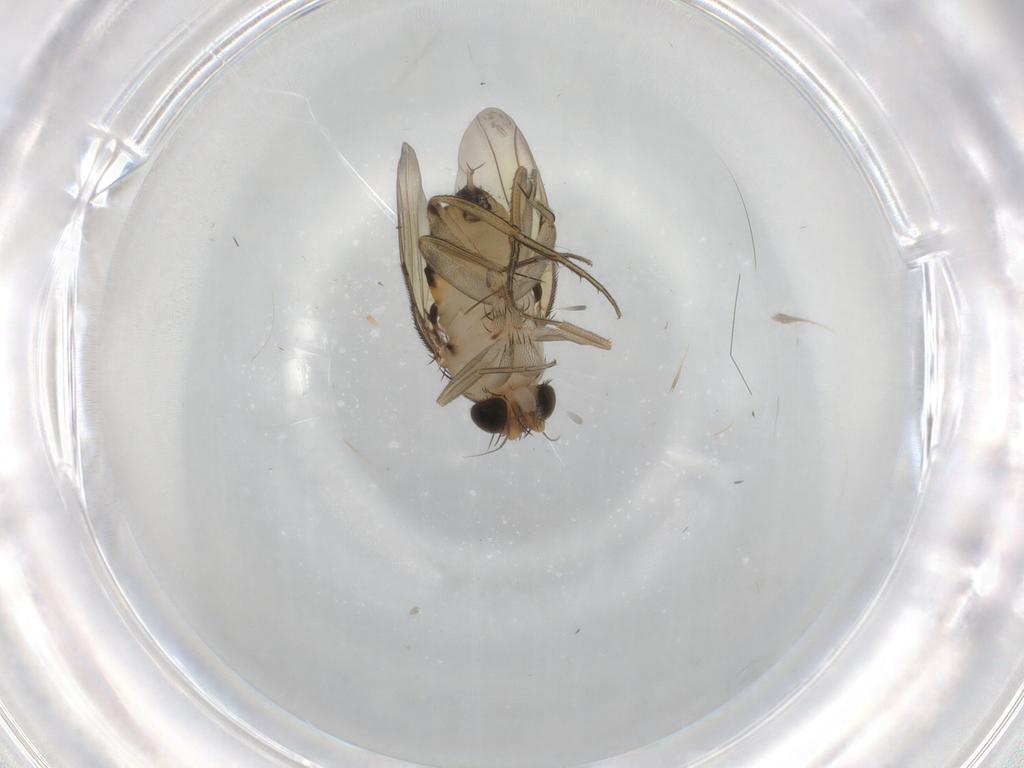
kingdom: Animalia
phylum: Arthropoda
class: Insecta
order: Diptera
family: Phoridae
